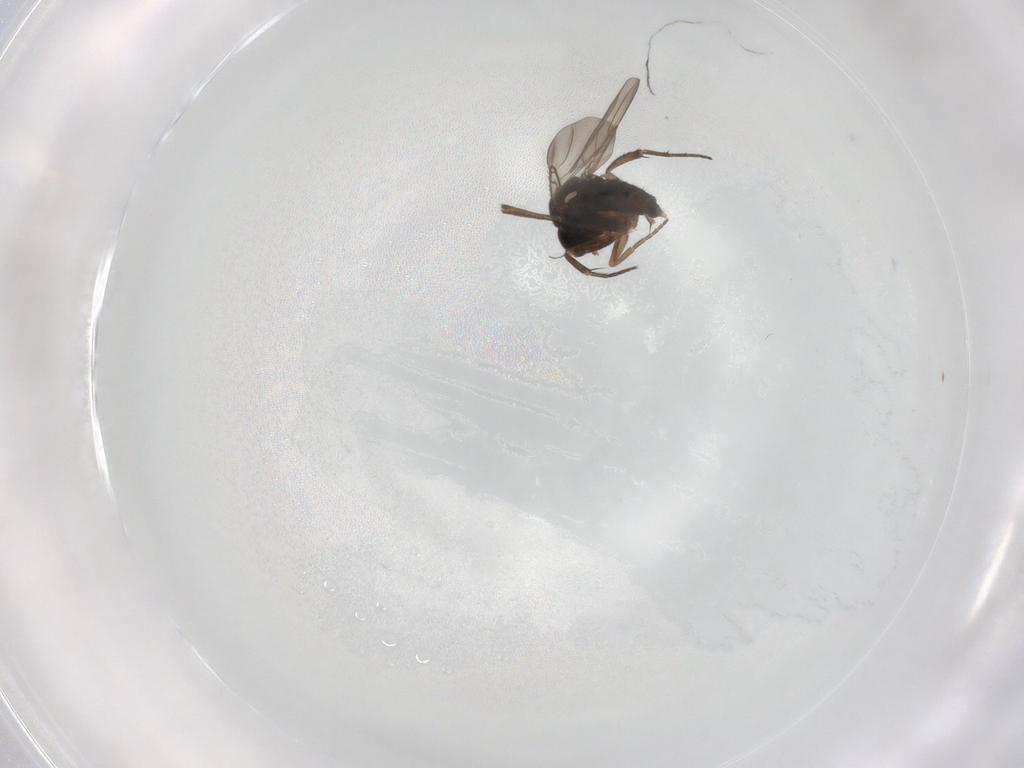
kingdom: Animalia
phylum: Arthropoda
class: Insecta
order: Diptera
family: Phoridae
